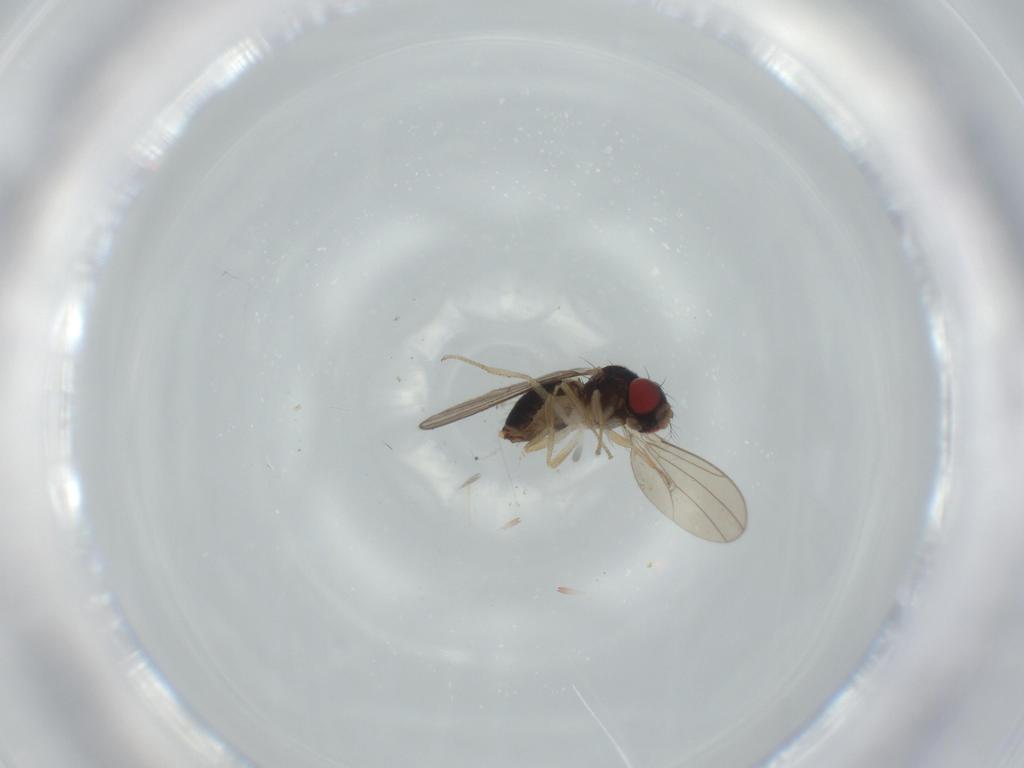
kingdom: Animalia
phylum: Arthropoda
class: Insecta
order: Diptera
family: Drosophilidae
